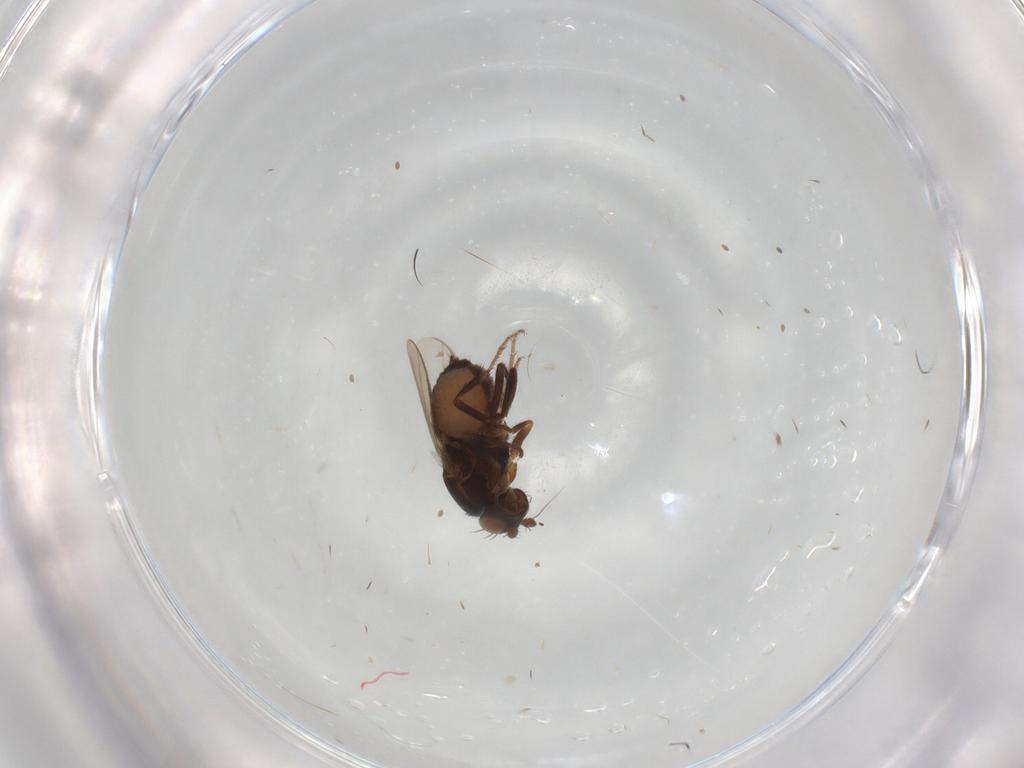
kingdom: Animalia
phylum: Arthropoda
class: Insecta
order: Diptera
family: Sphaeroceridae
